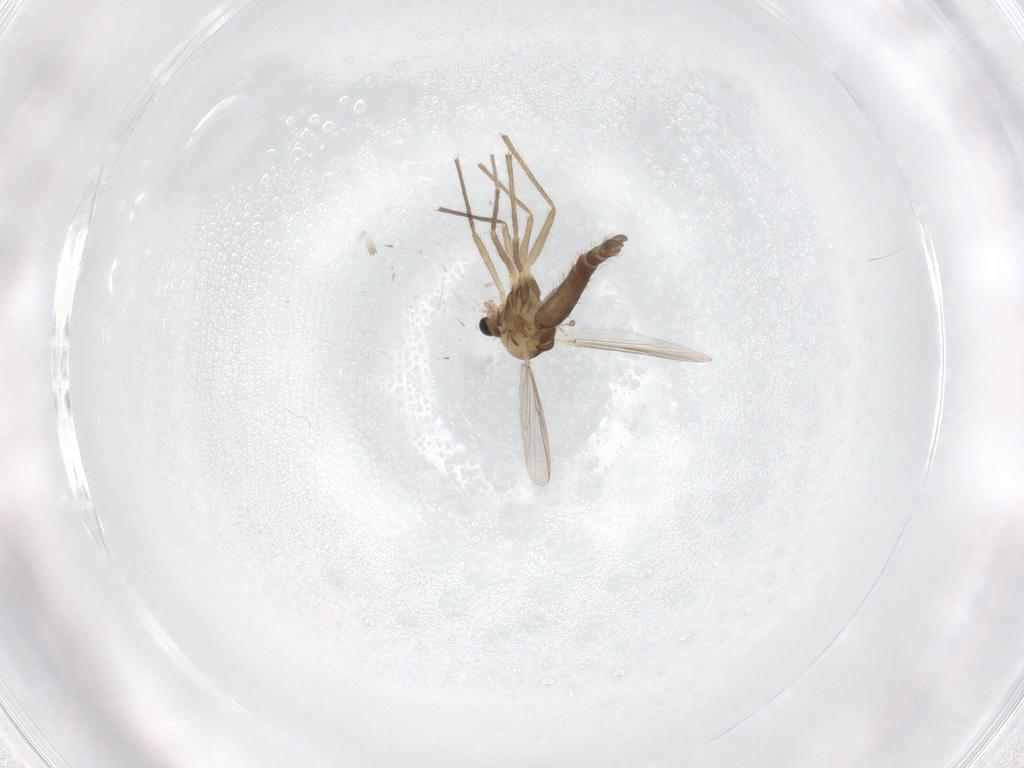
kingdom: Animalia
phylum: Arthropoda
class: Insecta
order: Diptera
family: Chironomidae
